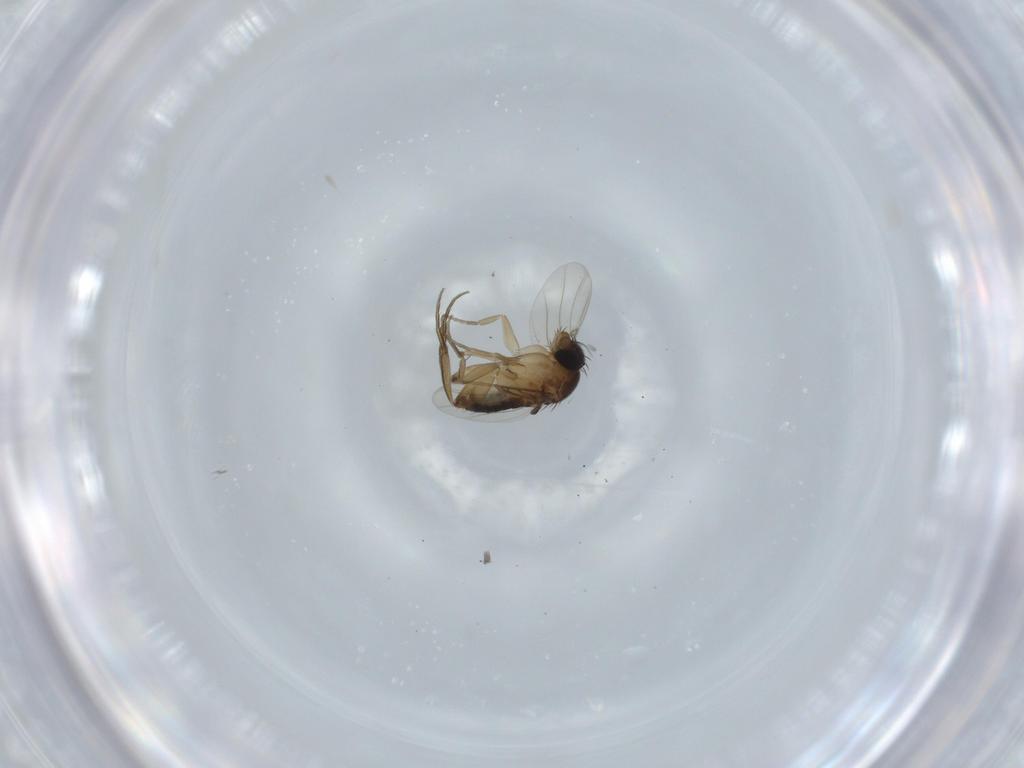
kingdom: Animalia
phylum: Arthropoda
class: Insecta
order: Diptera
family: Phoridae
